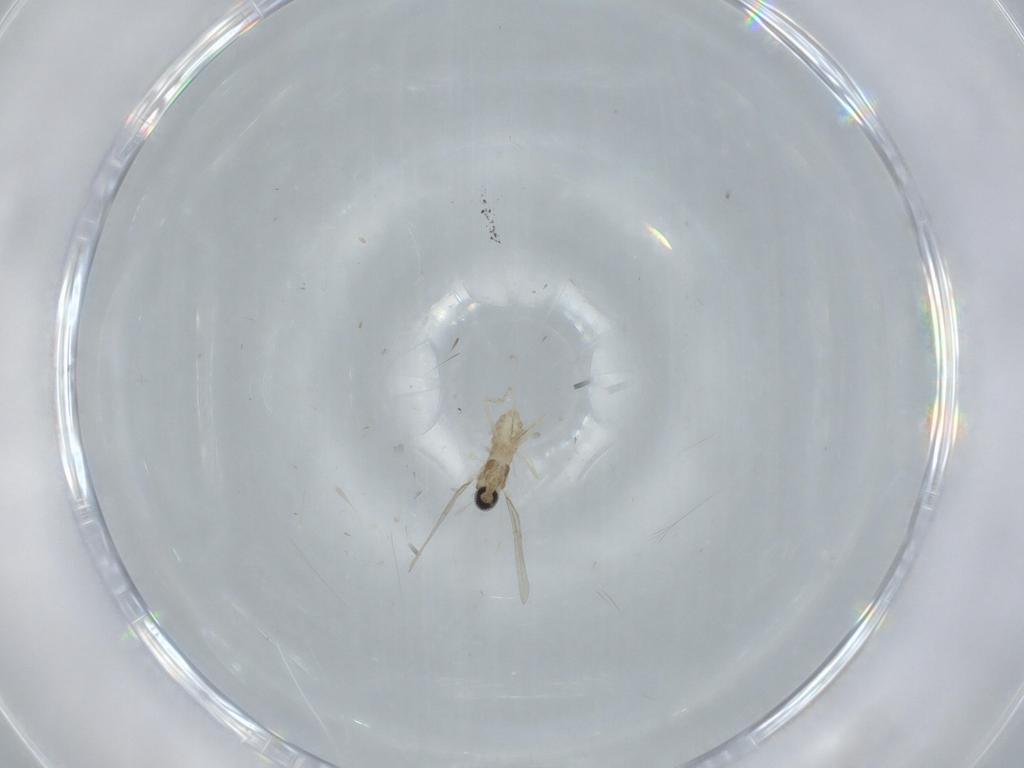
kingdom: Animalia
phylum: Arthropoda
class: Insecta
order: Diptera
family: Cecidomyiidae
